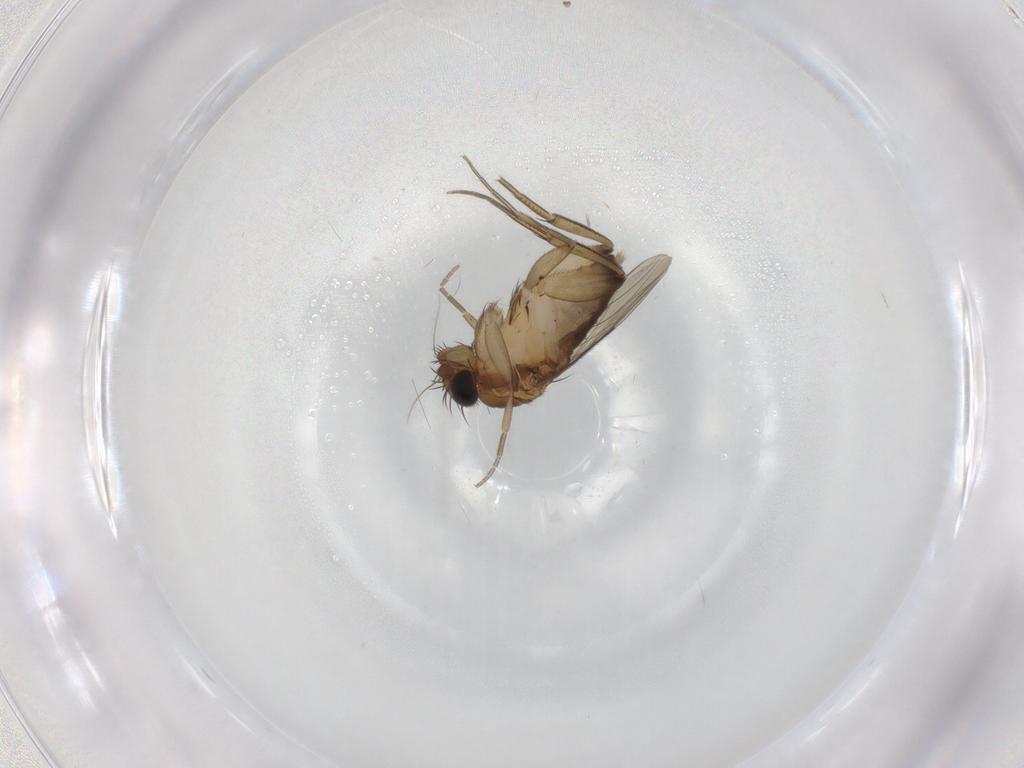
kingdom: Animalia
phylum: Arthropoda
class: Insecta
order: Diptera
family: Phoridae
